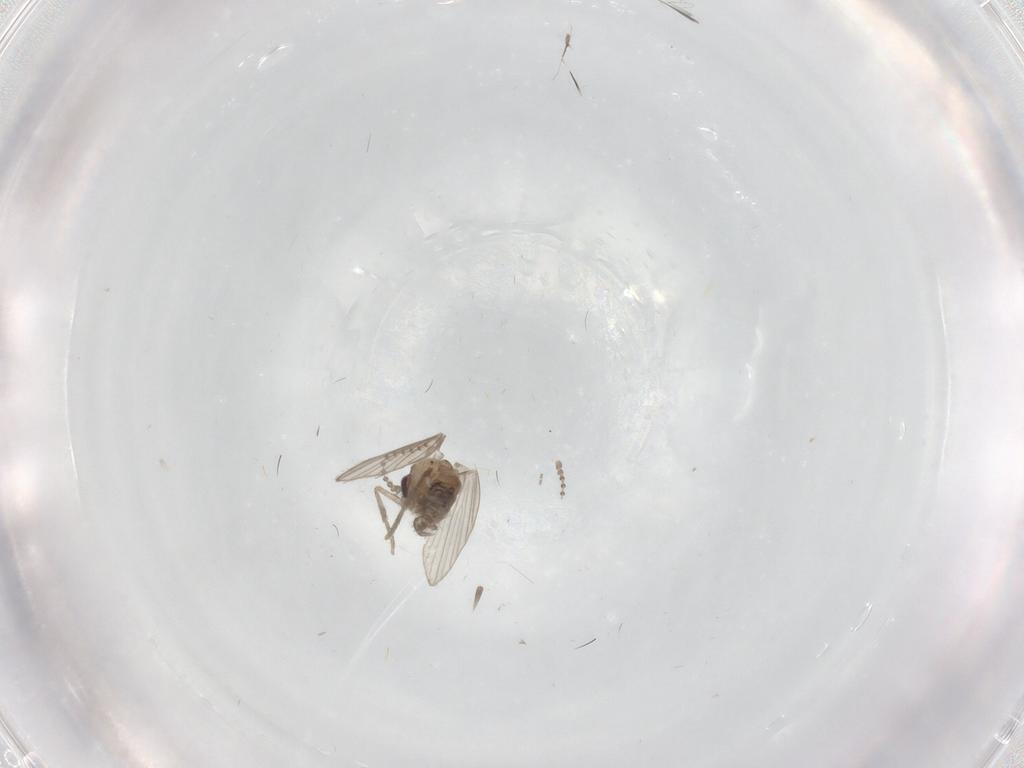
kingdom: Animalia
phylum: Arthropoda
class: Insecta
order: Diptera
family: Psychodidae
